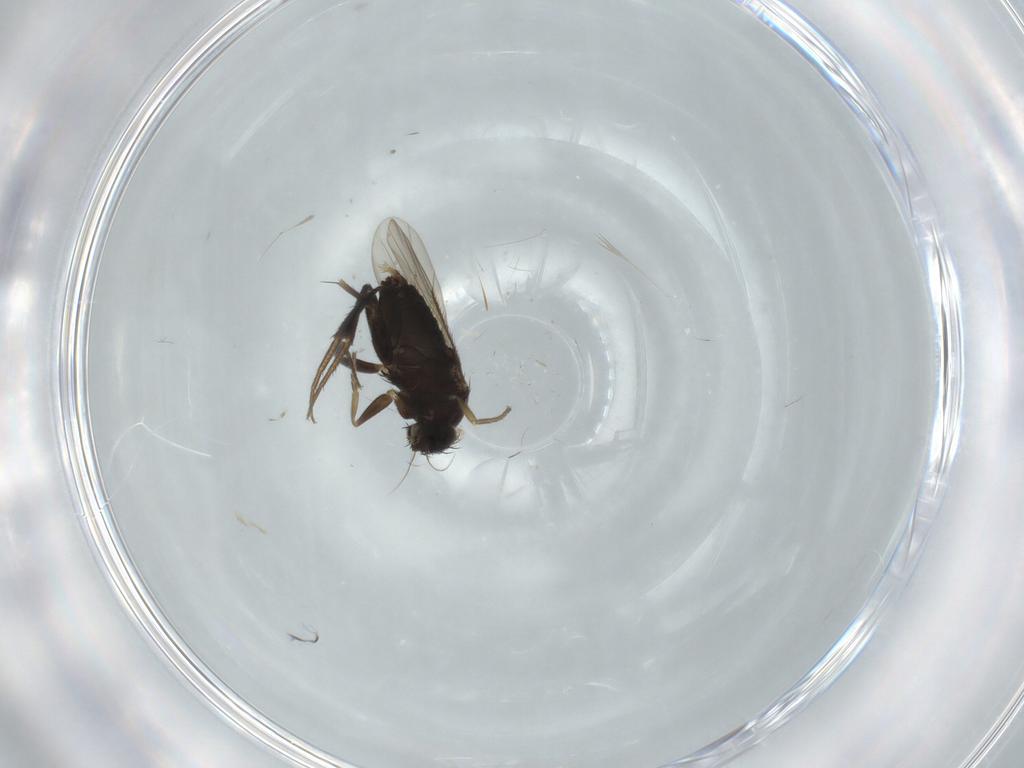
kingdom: Animalia
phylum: Arthropoda
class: Insecta
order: Diptera
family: Phoridae
